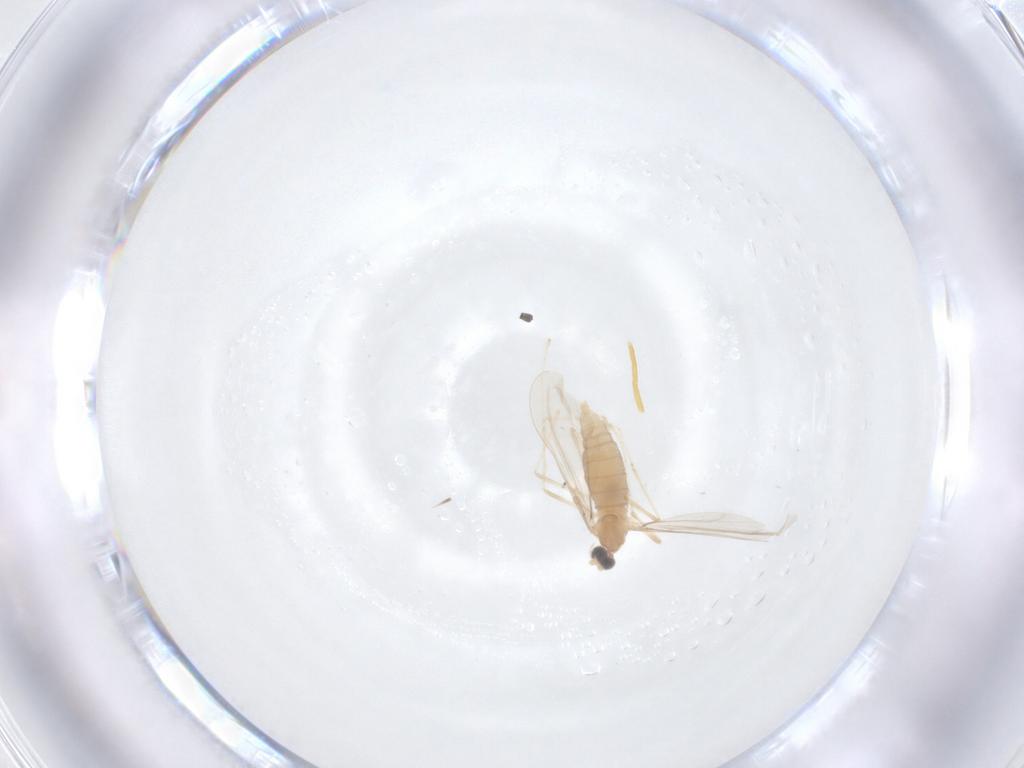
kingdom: Animalia
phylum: Arthropoda
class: Insecta
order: Diptera
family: Cecidomyiidae
